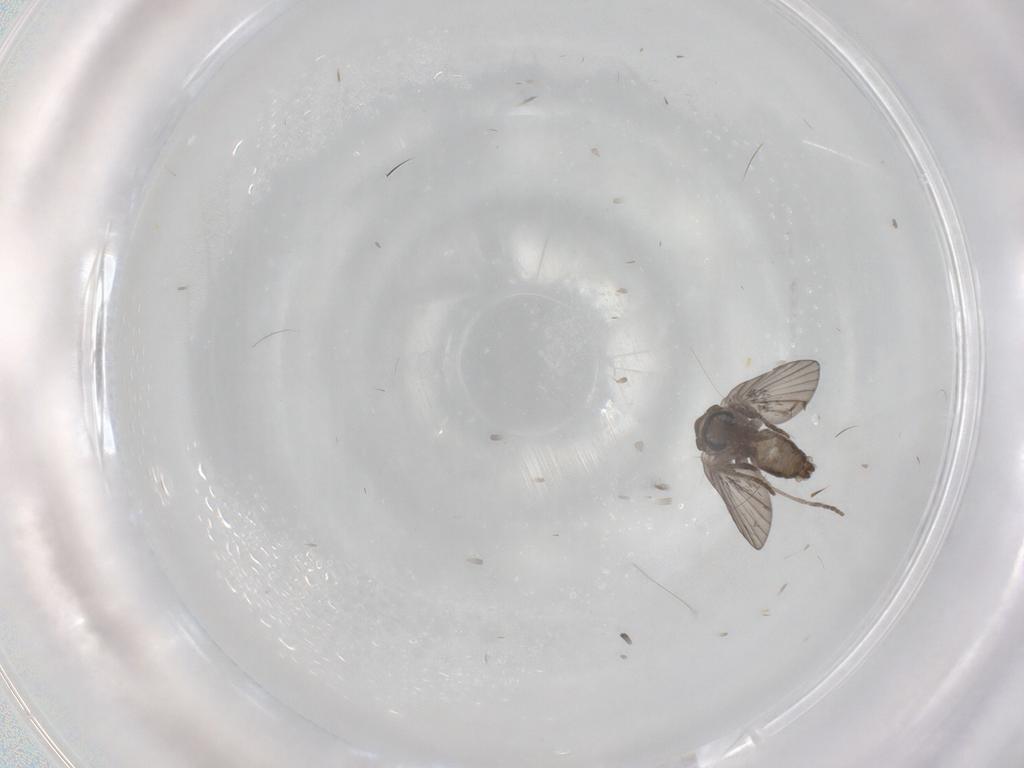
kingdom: Animalia
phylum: Arthropoda
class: Insecta
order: Diptera
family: Psychodidae
